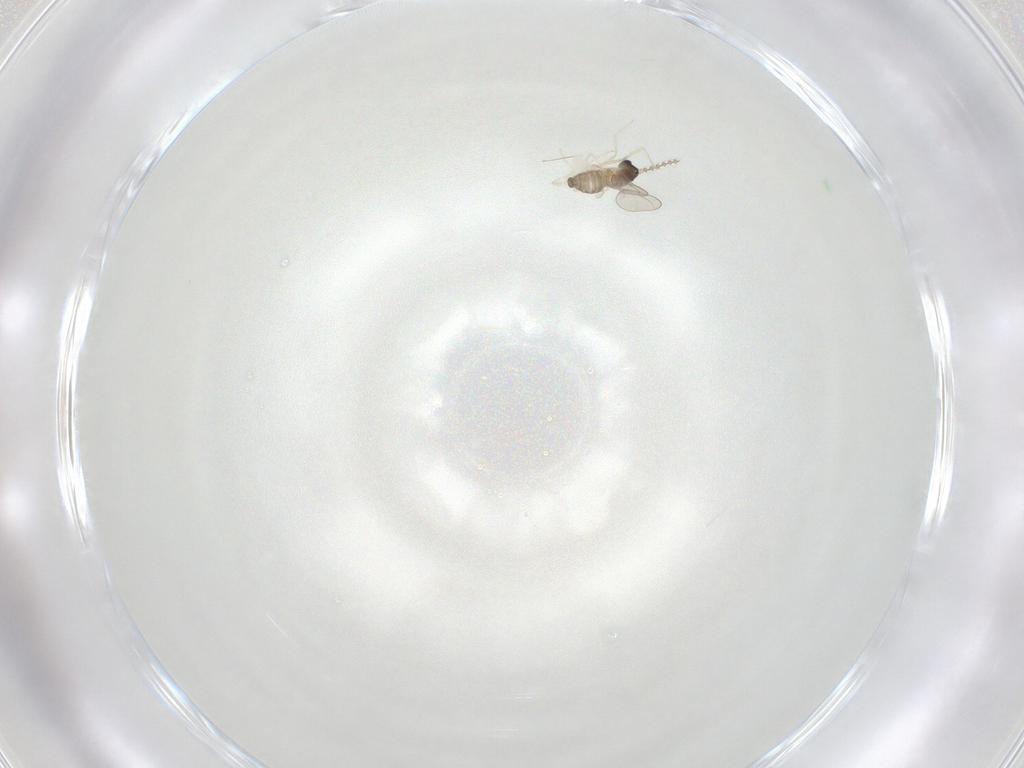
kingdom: Animalia
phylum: Arthropoda
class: Insecta
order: Diptera
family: Cecidomyiidae
